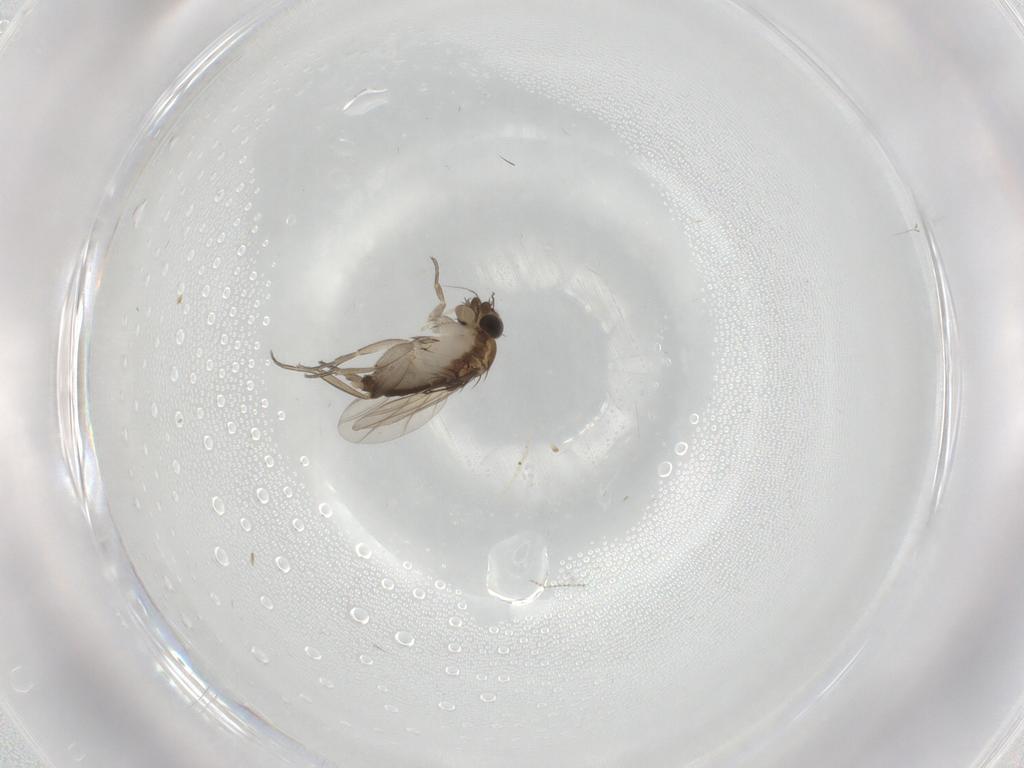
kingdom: Animalia
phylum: Arthropoda
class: Insecta
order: Diptera
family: Phoridae
